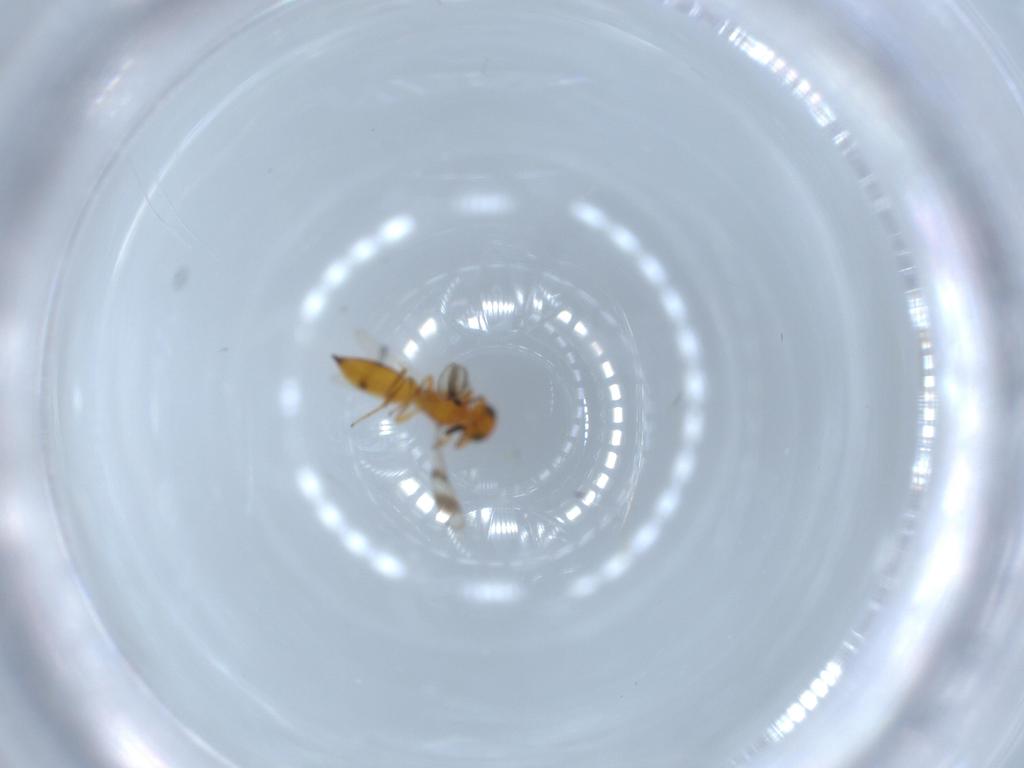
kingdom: Animalia
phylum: Arthropoda
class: Insecta
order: Hymenoptera
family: Scelionidae
